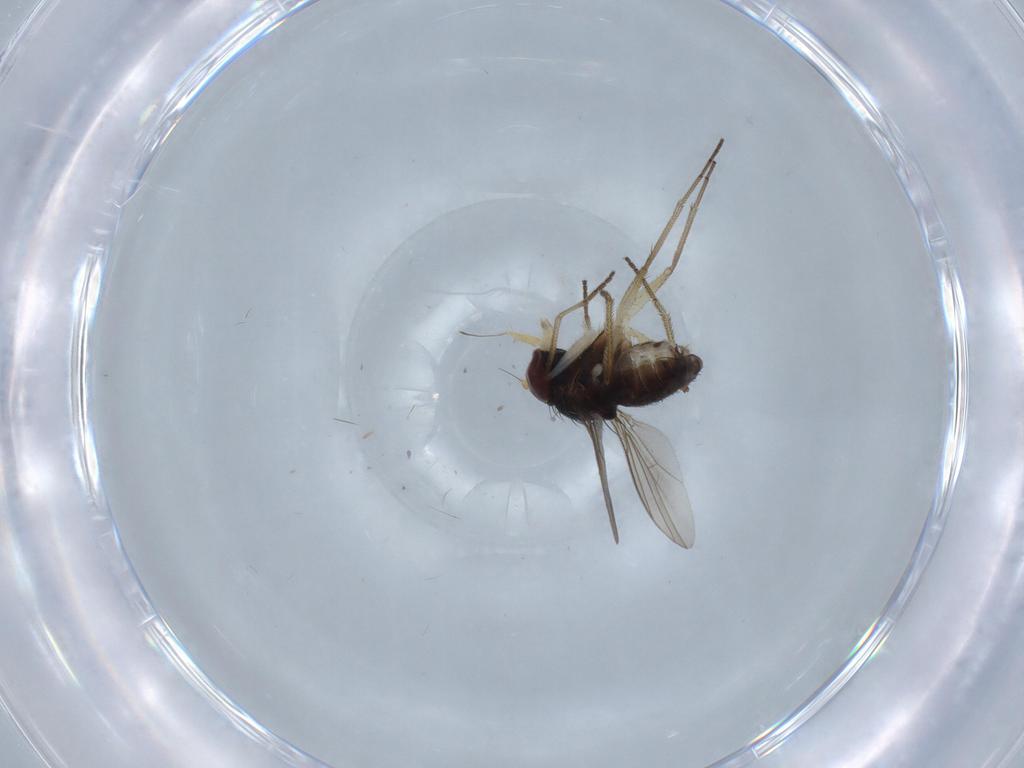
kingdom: Animalia
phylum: Arthropoda
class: Insecta
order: Diptera
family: Dolichopodidae
